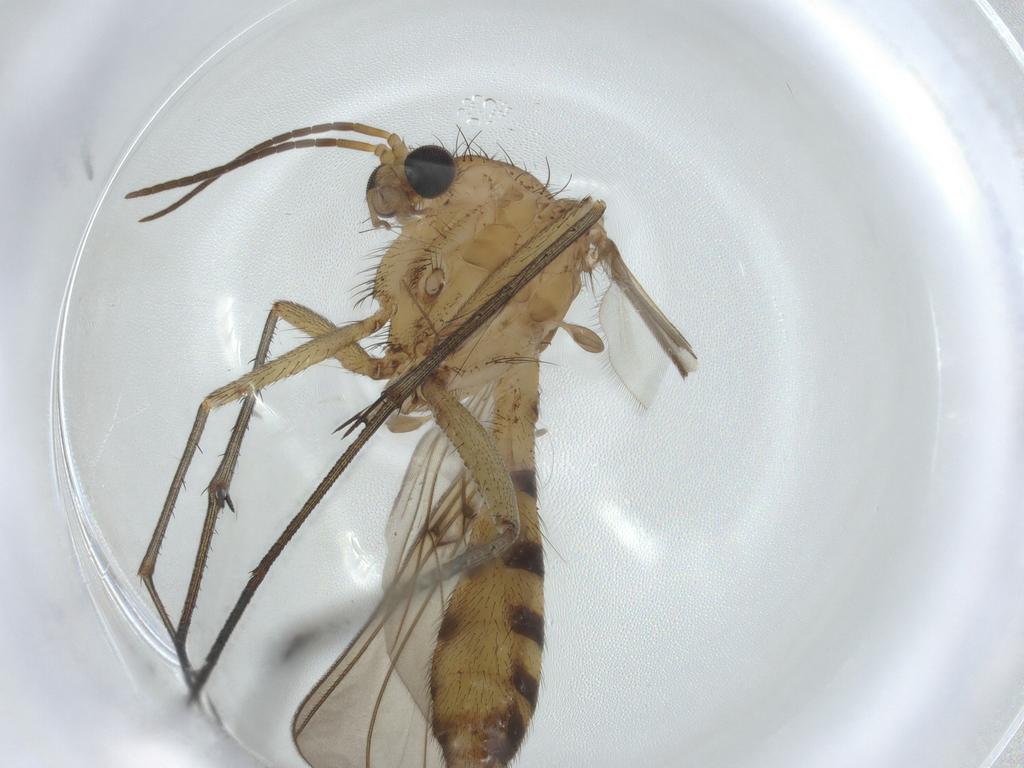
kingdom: Animalia
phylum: Arthropoda
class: Insecta
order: Diptera
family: Mycetophilidae
